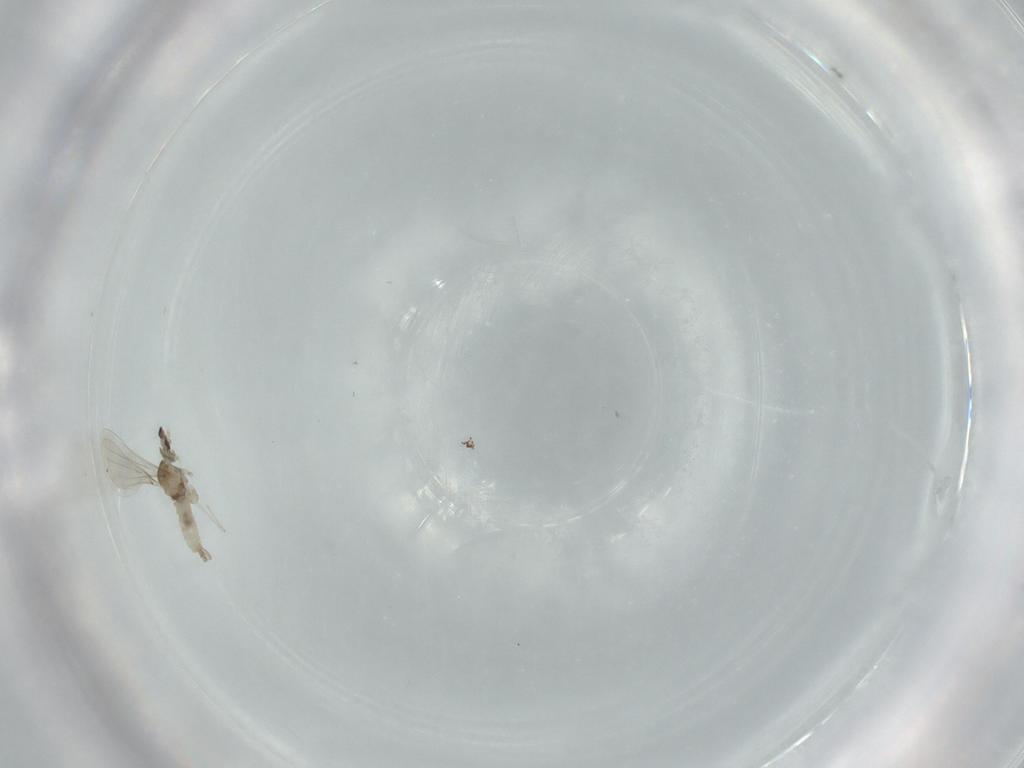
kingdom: Animalia
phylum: Arthropoda
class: Insecta
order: Diptera
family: Cecidomyiidae
